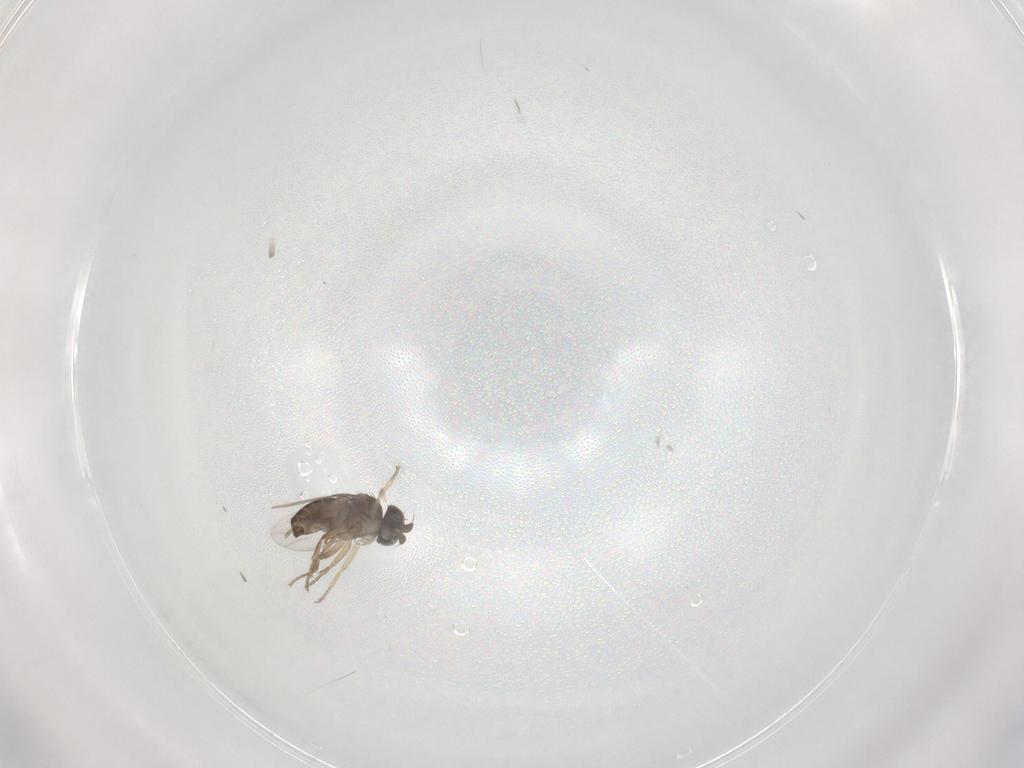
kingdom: Animalia
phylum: Arthropoda
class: Insecta
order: Diptera
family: Phoridae
